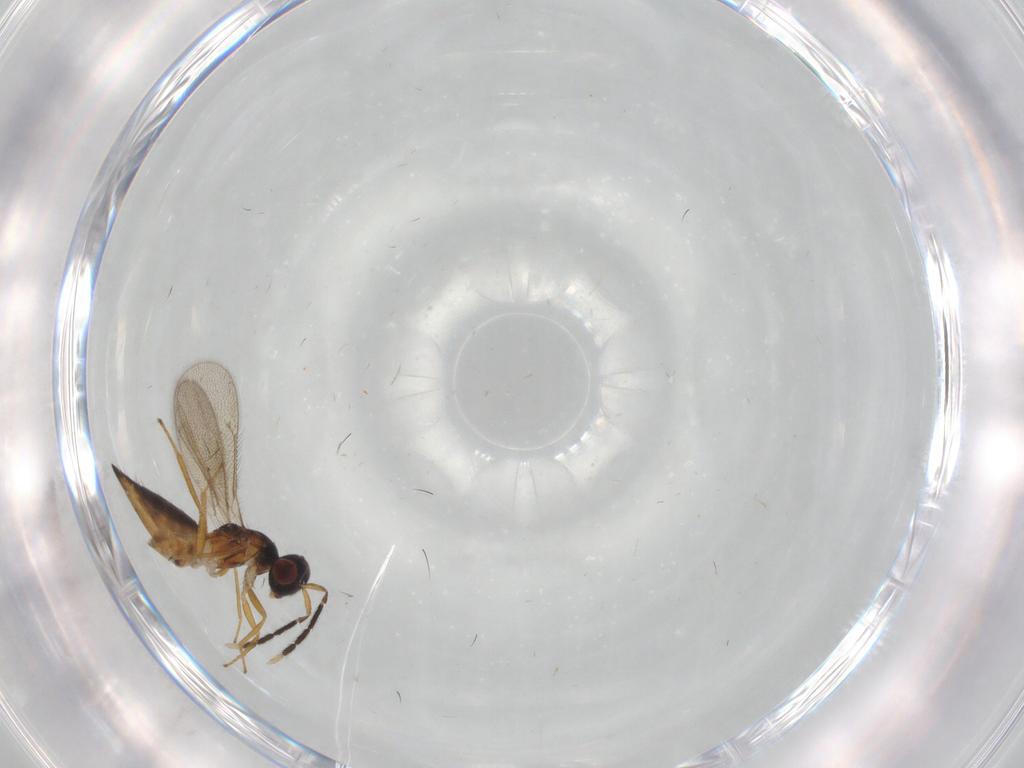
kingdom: Animalia
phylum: Arthropoda
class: Insecta
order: Hymenoptera
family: Eulophidae
